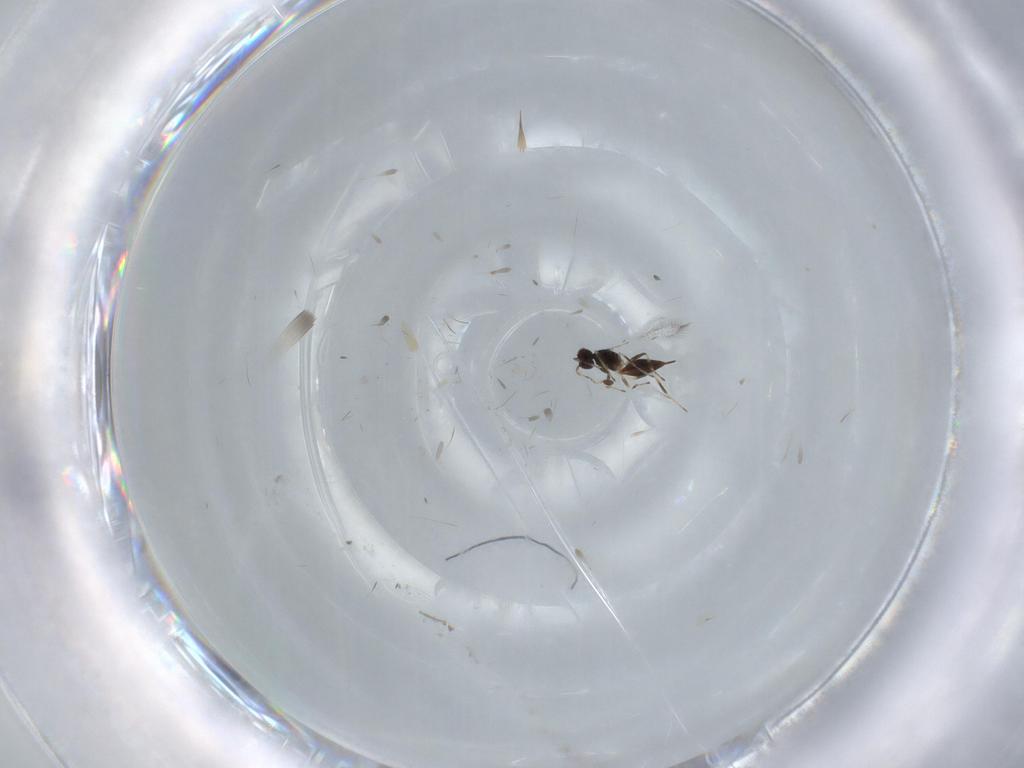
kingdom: Animalia
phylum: Arthropoda
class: Insecta
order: Hymenoptera
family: Mymaridae
